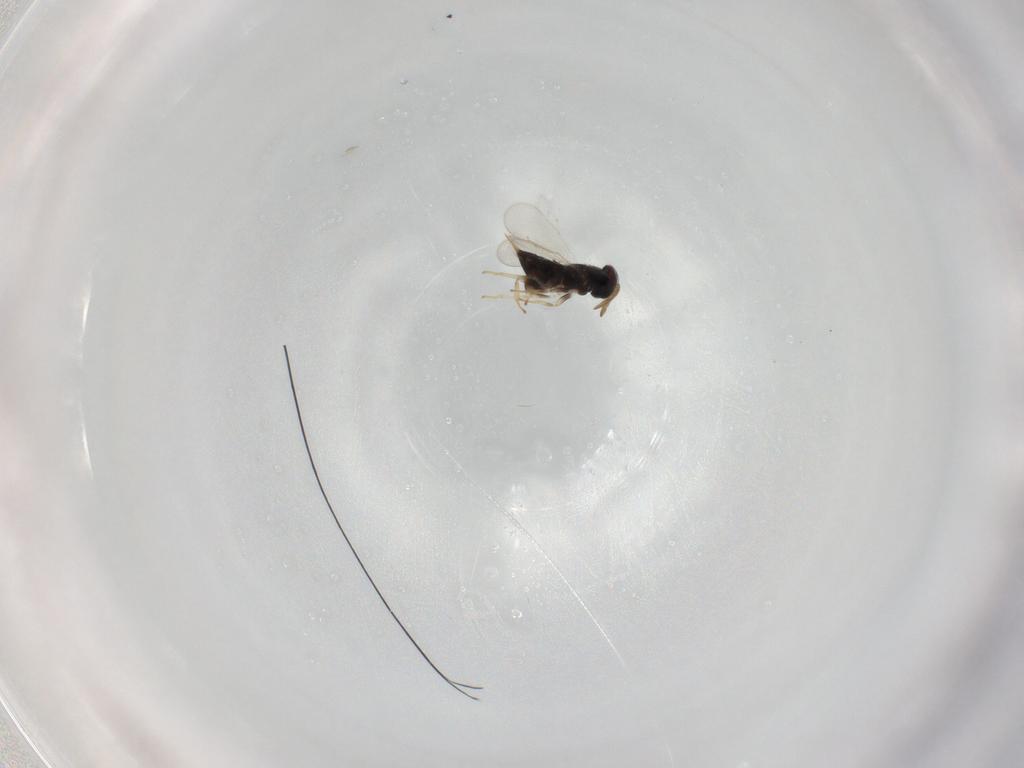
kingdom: Animalia
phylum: Arthropoda
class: Insecta
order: Hymenoptera
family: Aphelinidae
